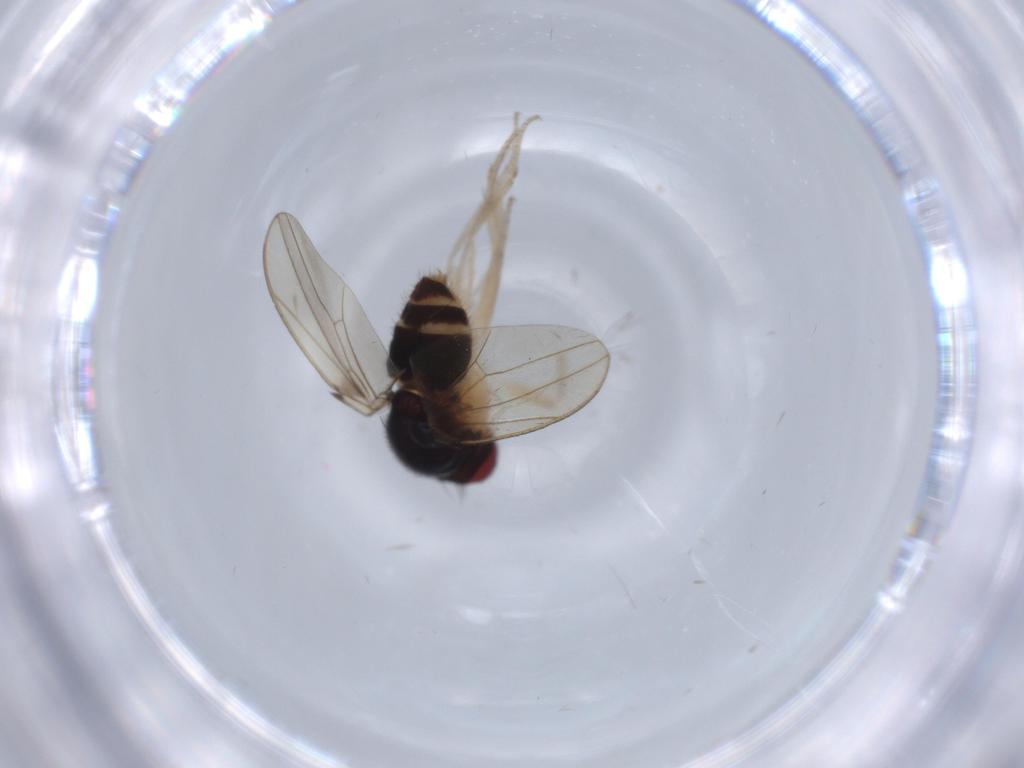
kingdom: Animalia
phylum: Arthropoda
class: Insecta
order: Diptera
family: Drosophilidae
